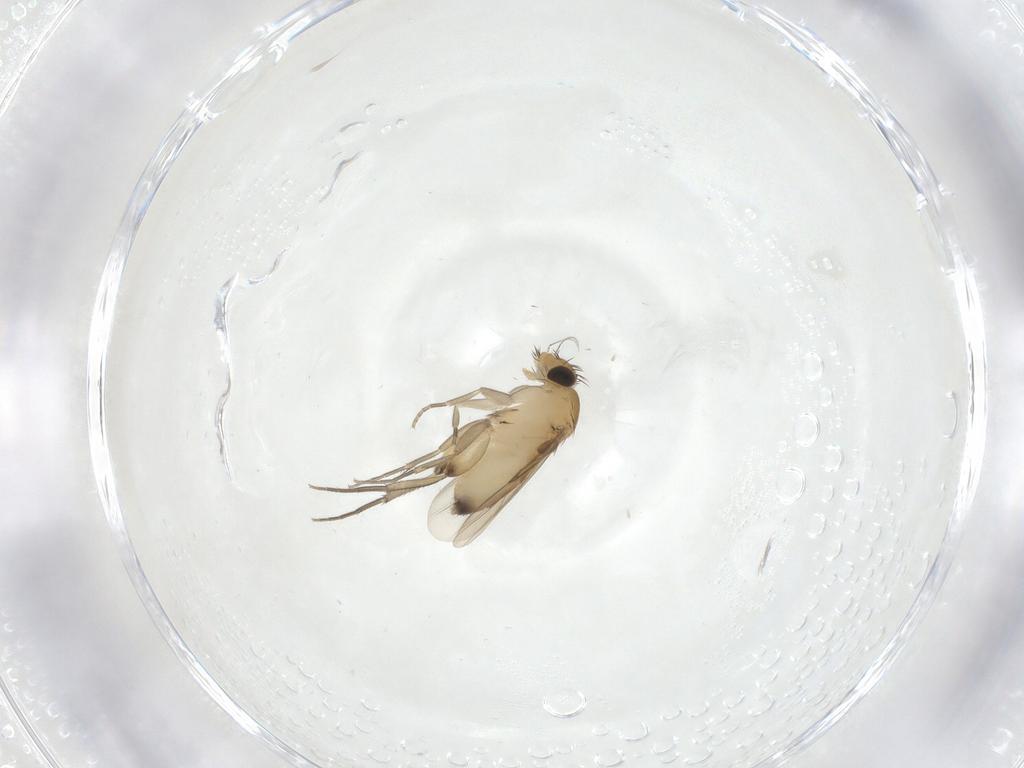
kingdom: Animalia
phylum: Arthropoda
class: Insecta
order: Diptera
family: Phoridae
